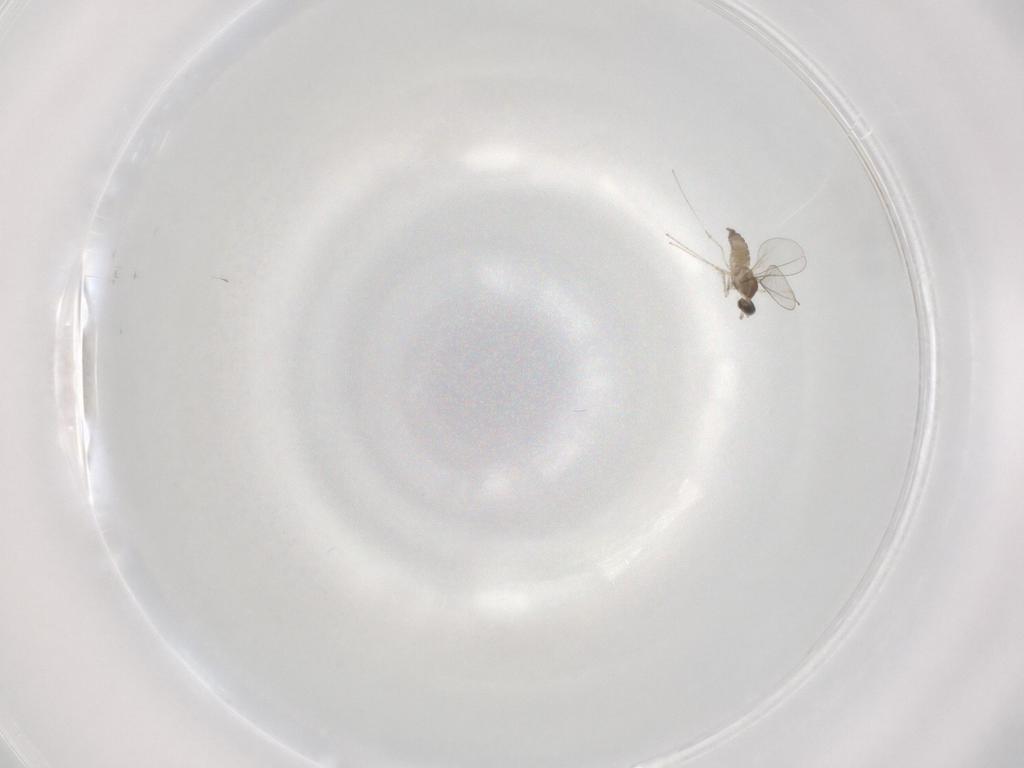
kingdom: Animalia
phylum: Arthropoda
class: Insecta
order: Diptera
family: Cecidomyiidae
